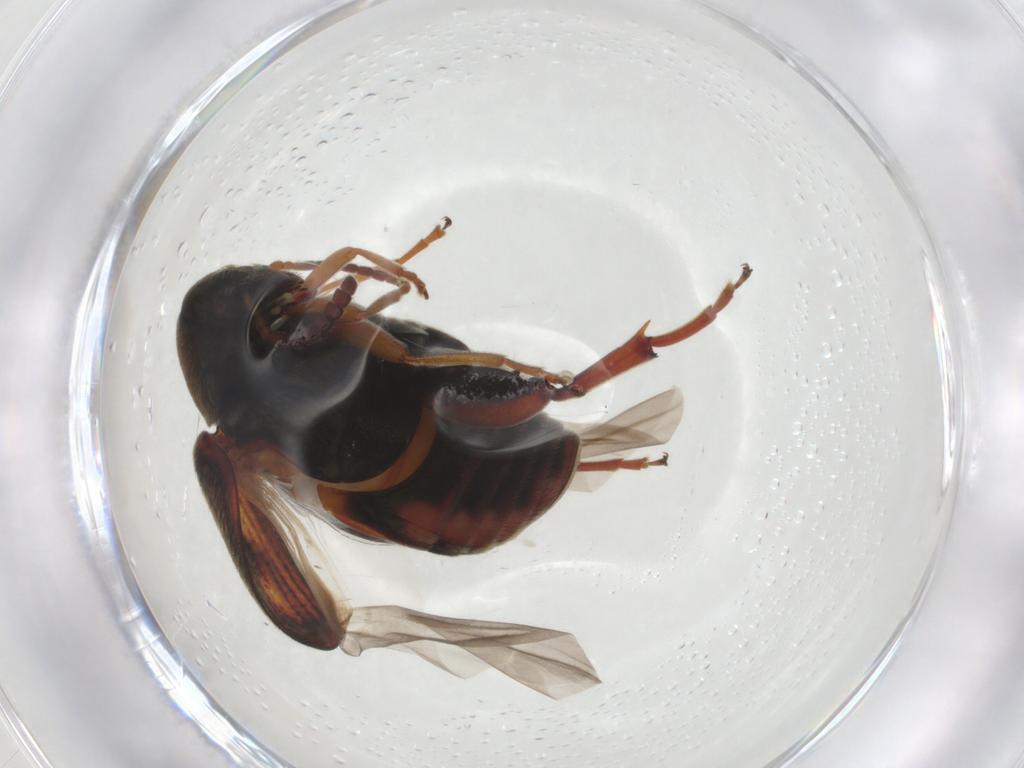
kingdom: Animalia
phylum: Arthropoda
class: Insecta
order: Coleoptera
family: Chrysomelidae
